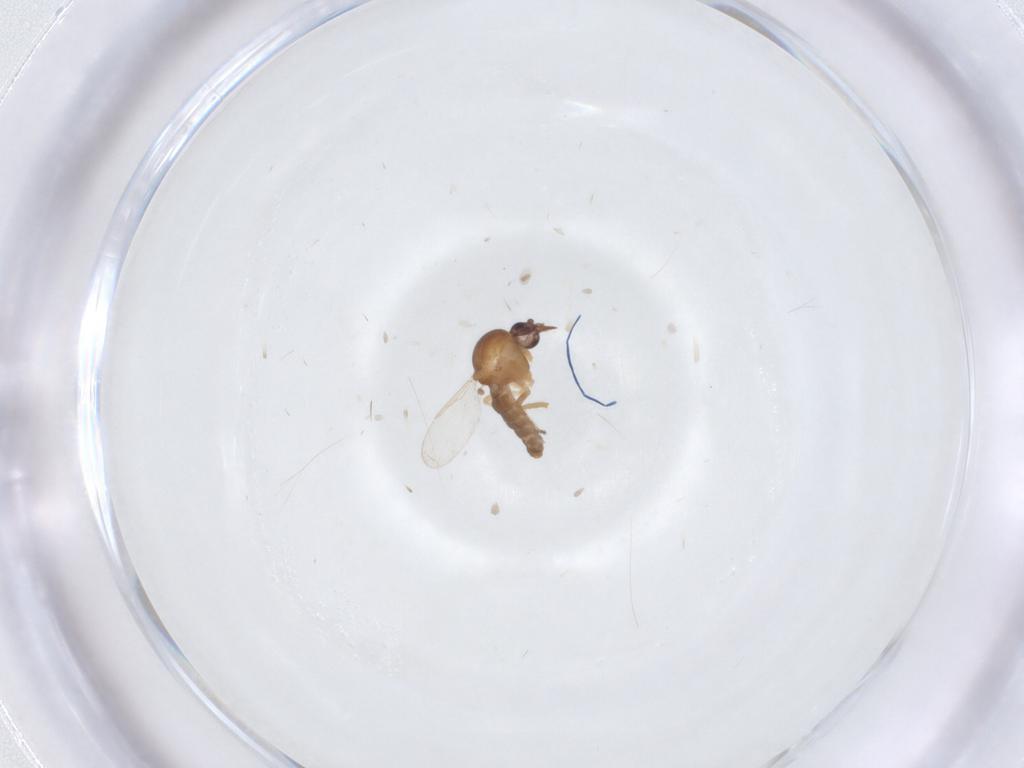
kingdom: Animalia
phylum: Arthropoda
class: Insecta
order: Diptera
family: Ceratopogonidae
